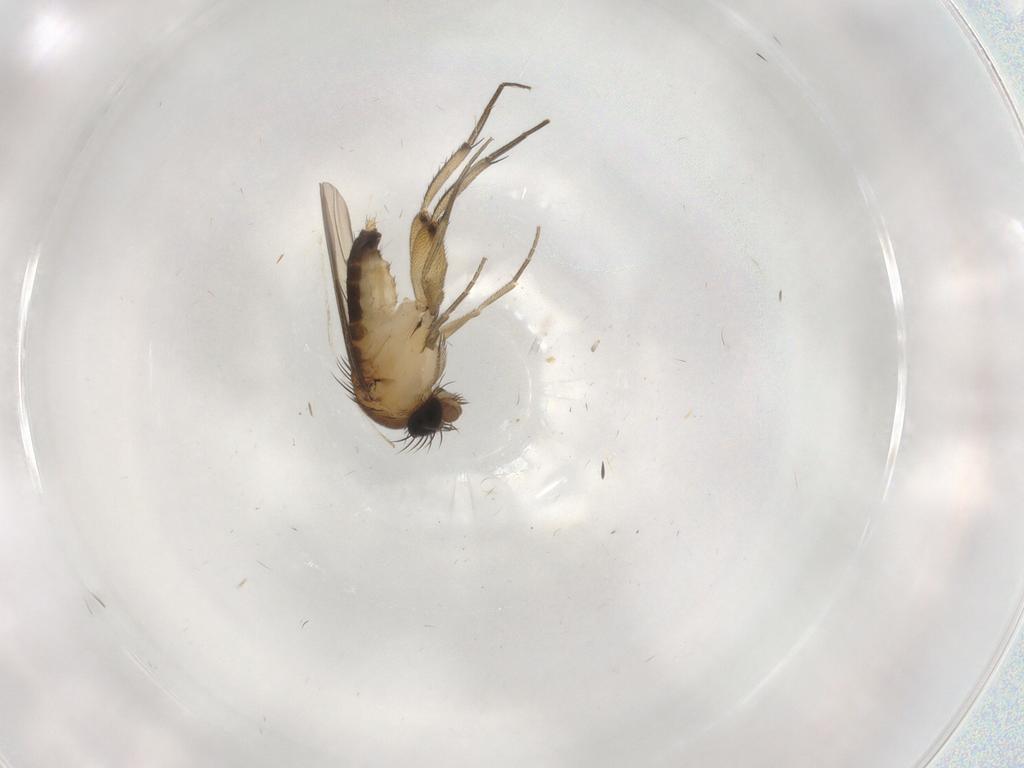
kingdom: Animalia
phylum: Arthropoda
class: Insecta
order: Diptera
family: Phoridae
